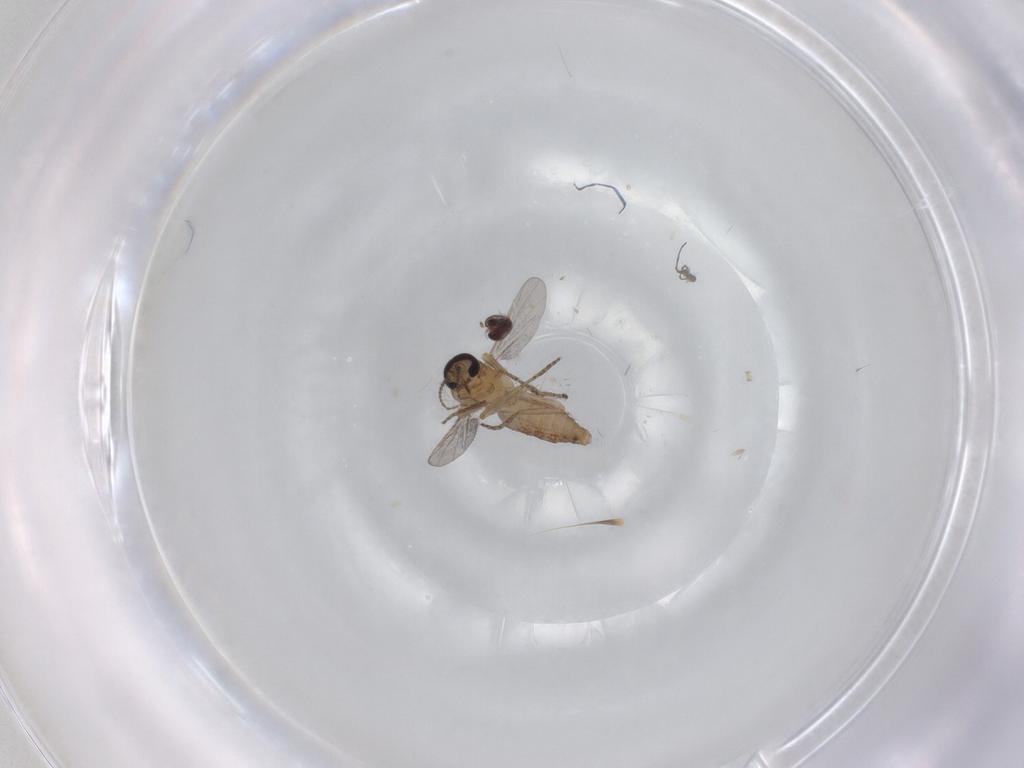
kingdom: Animalia
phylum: Arthropoda
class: Insecta
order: Diptera
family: Ceratopogonidae
